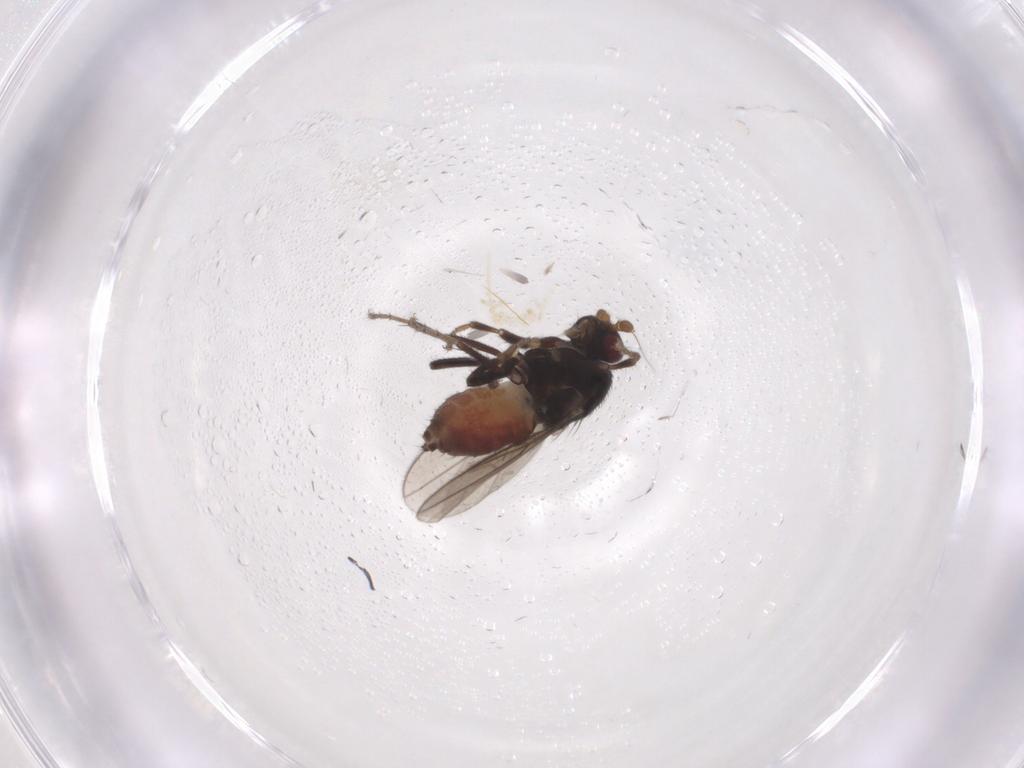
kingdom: Animalia
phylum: Arthropoda
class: Insecta
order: Diptera
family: Sphaeroceridae
